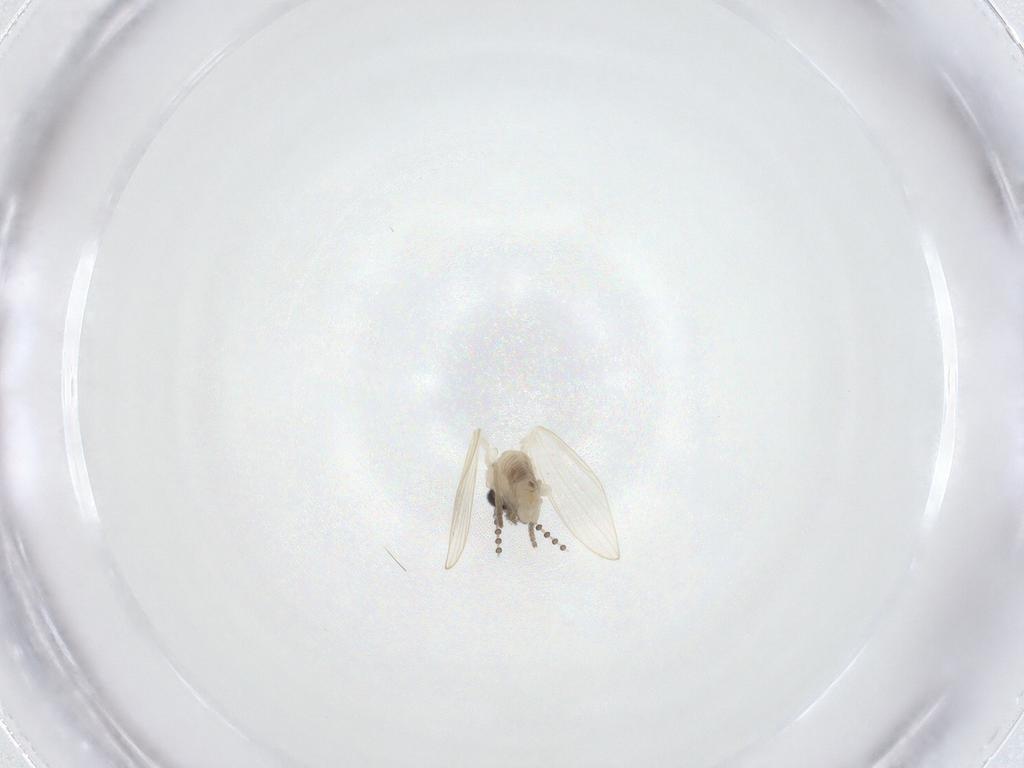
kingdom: Animalia
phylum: Arthropoda
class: Insecta
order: Diptera
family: Psychodidae
